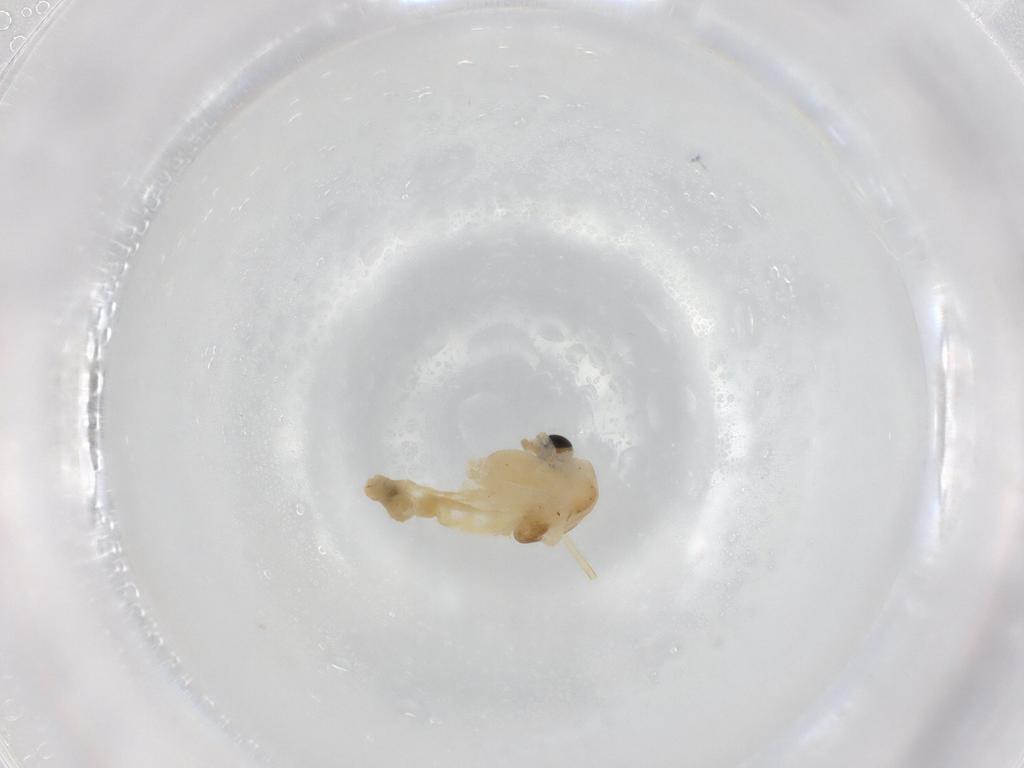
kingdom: Animalia
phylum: Arthropoda
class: Insecta
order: Diptera
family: Chironomidae
